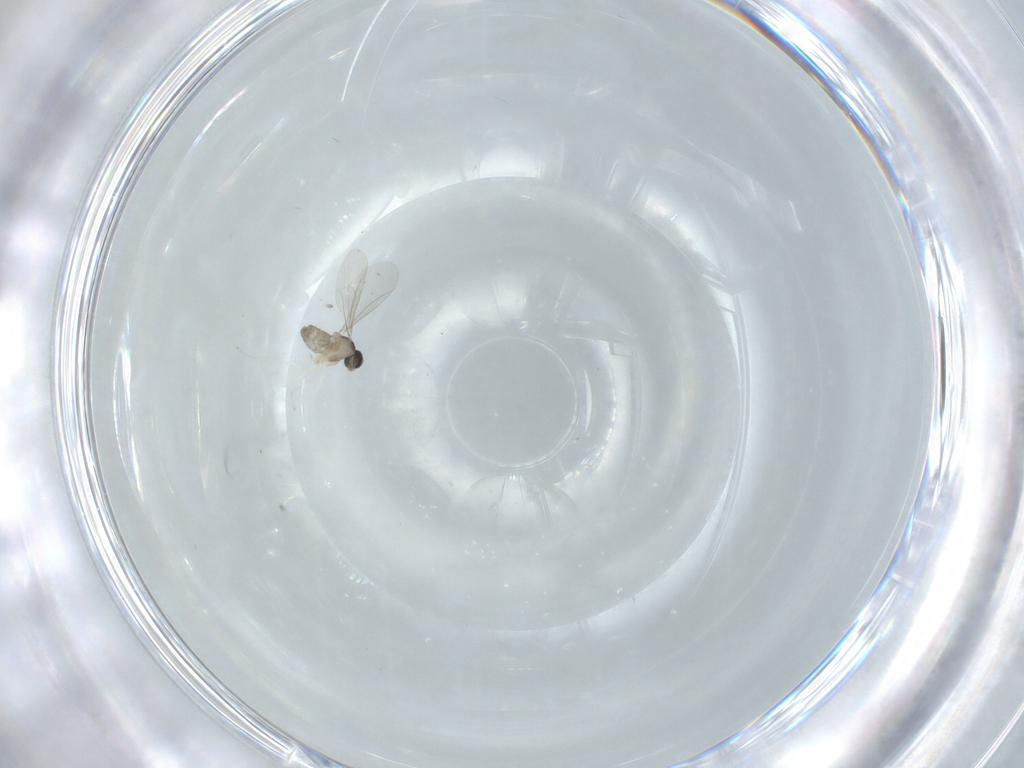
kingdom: Animalia
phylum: Arthropoda
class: Insecta
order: Diptera
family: Cecidomyiidae
